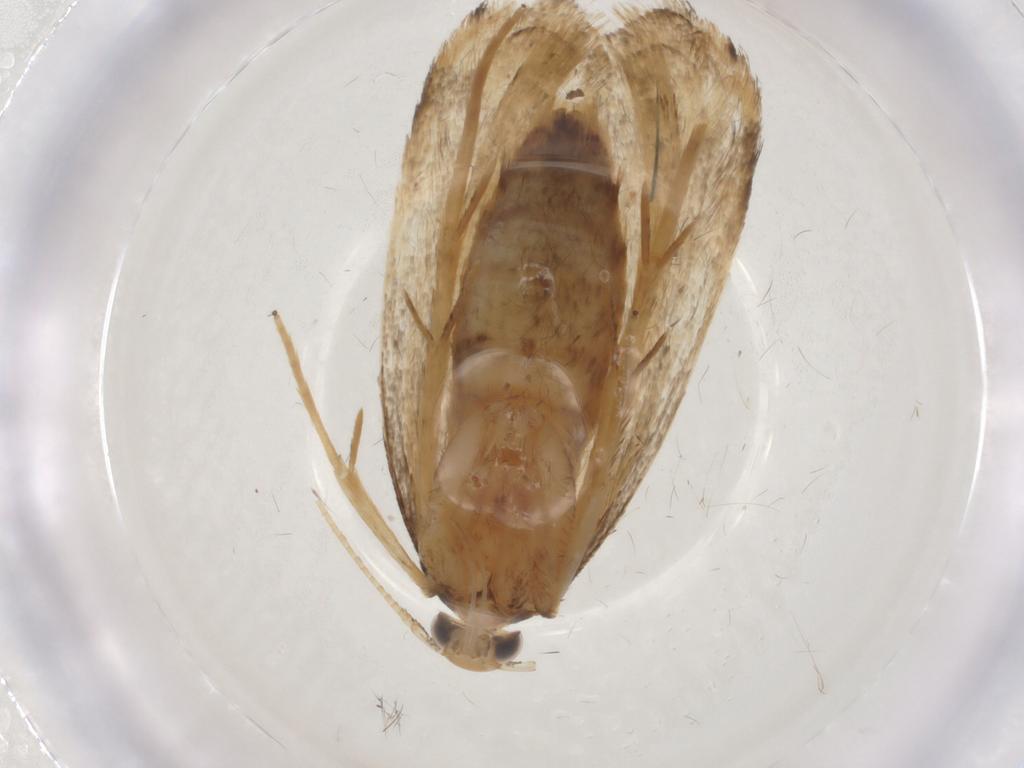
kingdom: Animalia
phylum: Arthropoda
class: Insecta
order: Lepidoptera
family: Lecithoceridae
